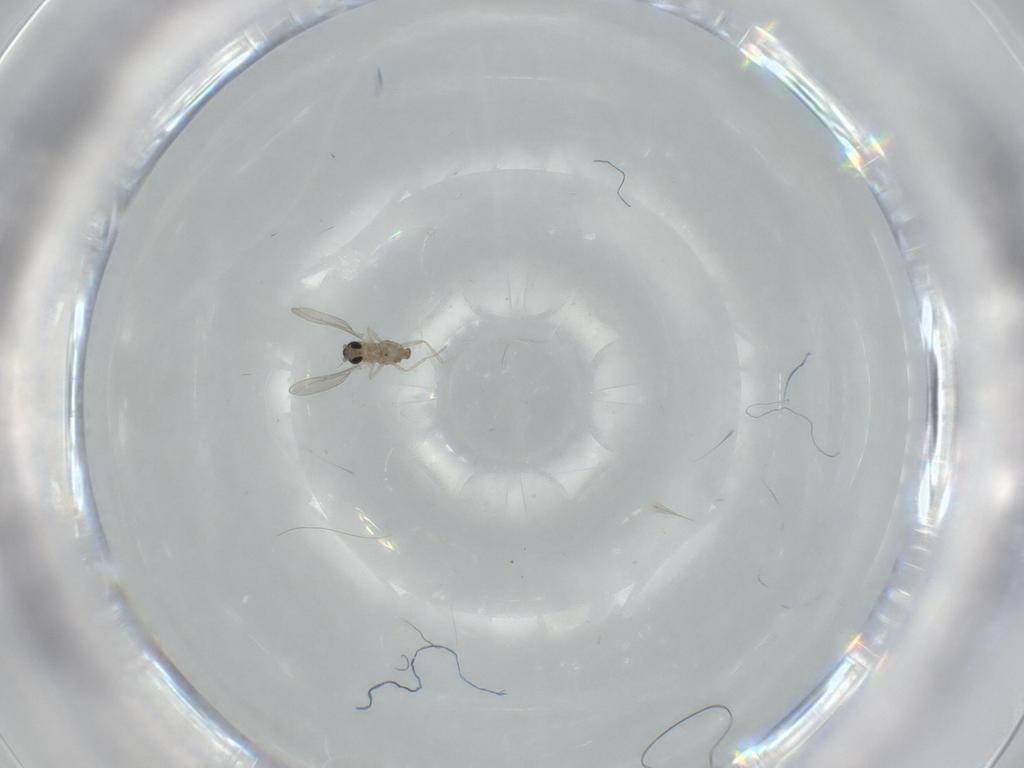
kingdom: Animalia
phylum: Arthropoda
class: Insecta
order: Diptera
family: Cecidomyiidae
